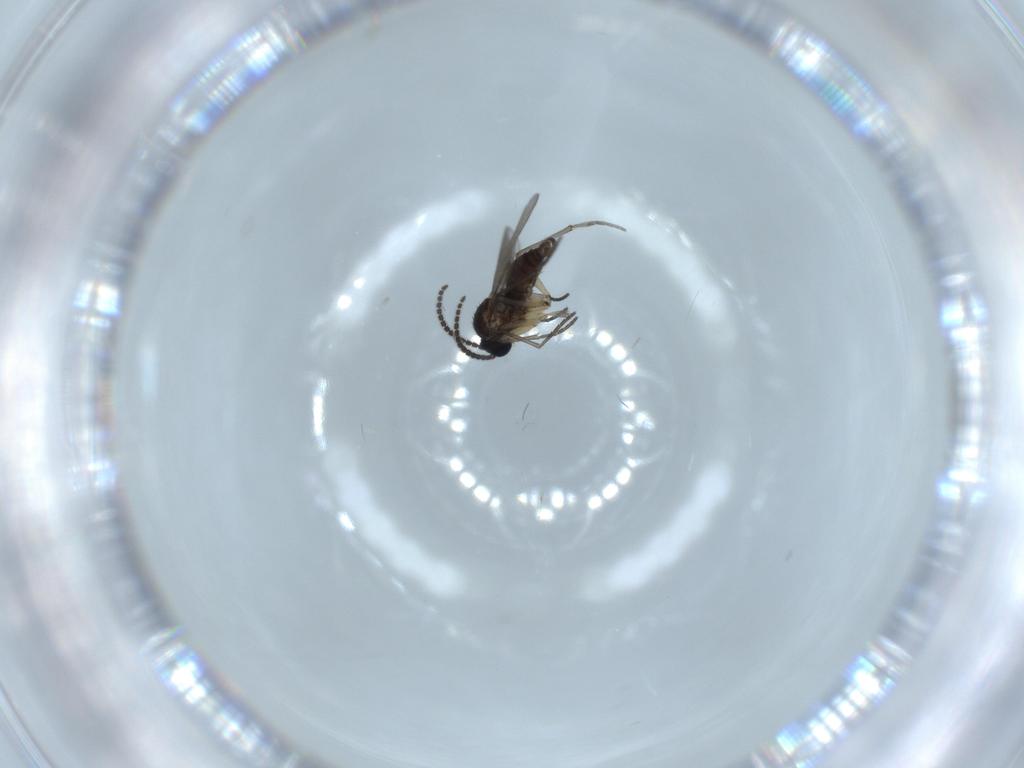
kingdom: Animalia
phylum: Arthropoda
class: Insecta
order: Diptera
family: Sciaridae
